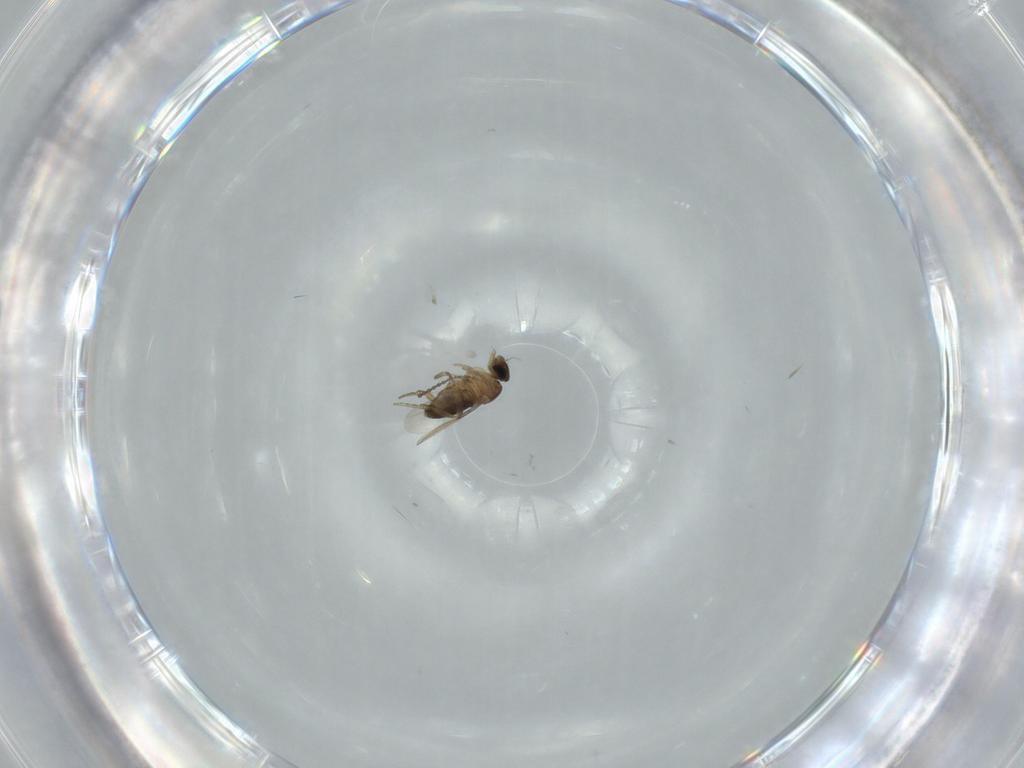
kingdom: Animalia
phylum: Arthropoda
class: Insecta
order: Diptera
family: Phoridae
